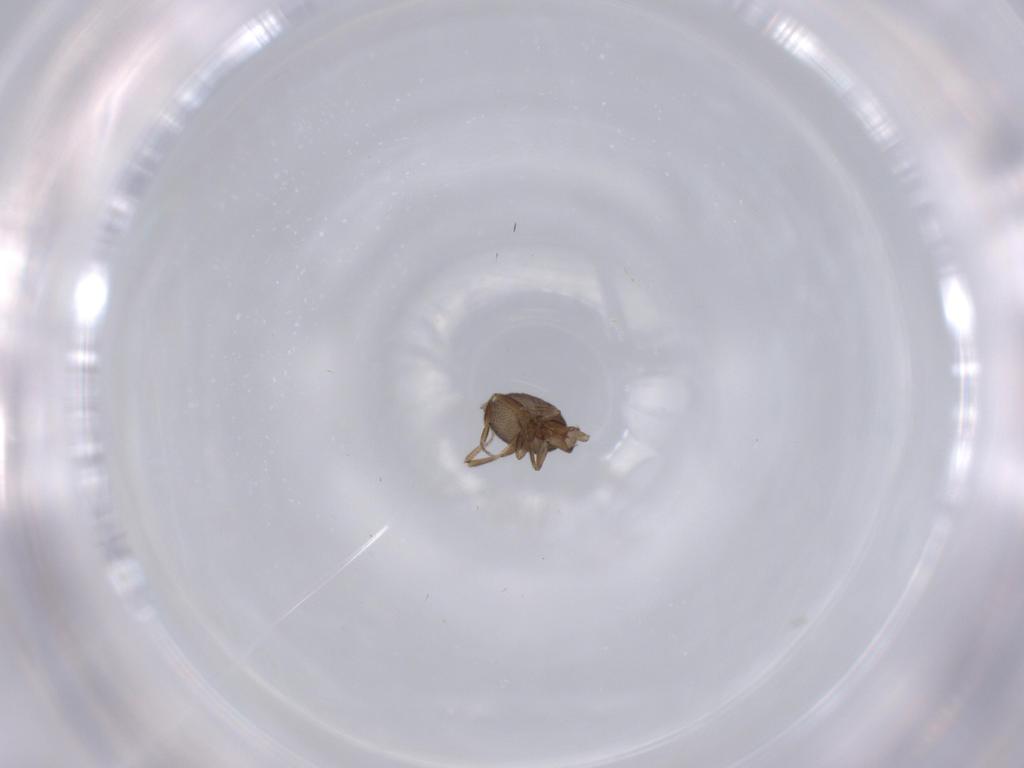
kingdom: Animalia
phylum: Arthropoda
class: Insecta
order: Diptera
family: Phoridae
